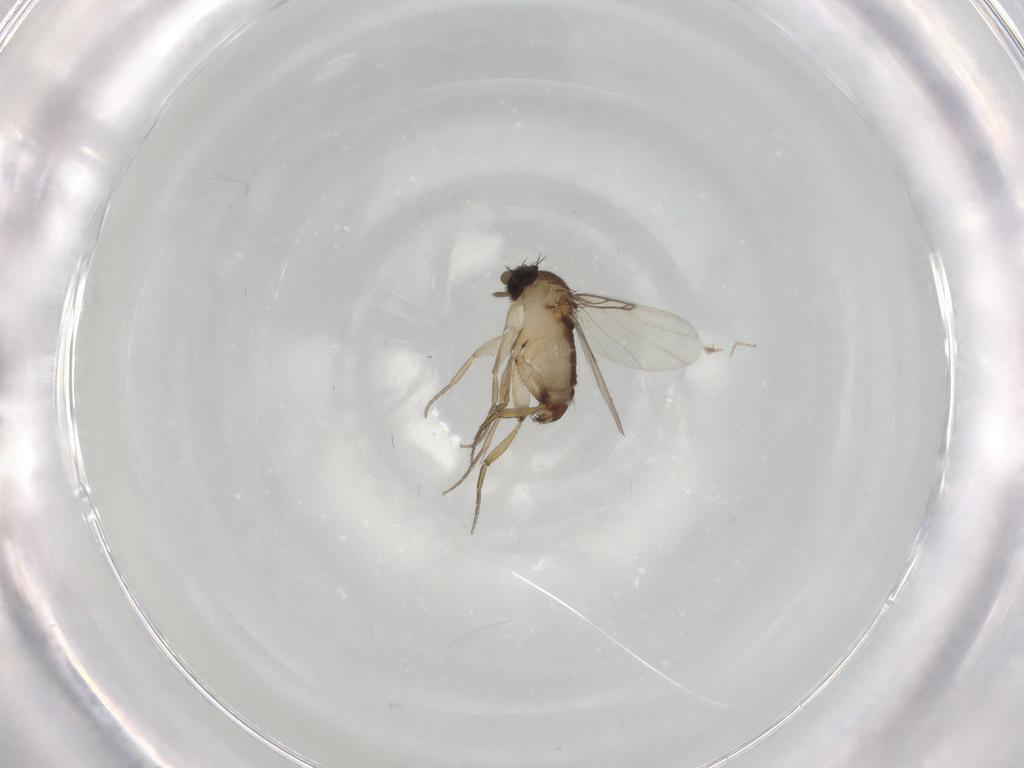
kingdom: Animalia
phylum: Arthropoda
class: Insecta
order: Diptera
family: Phoridae
